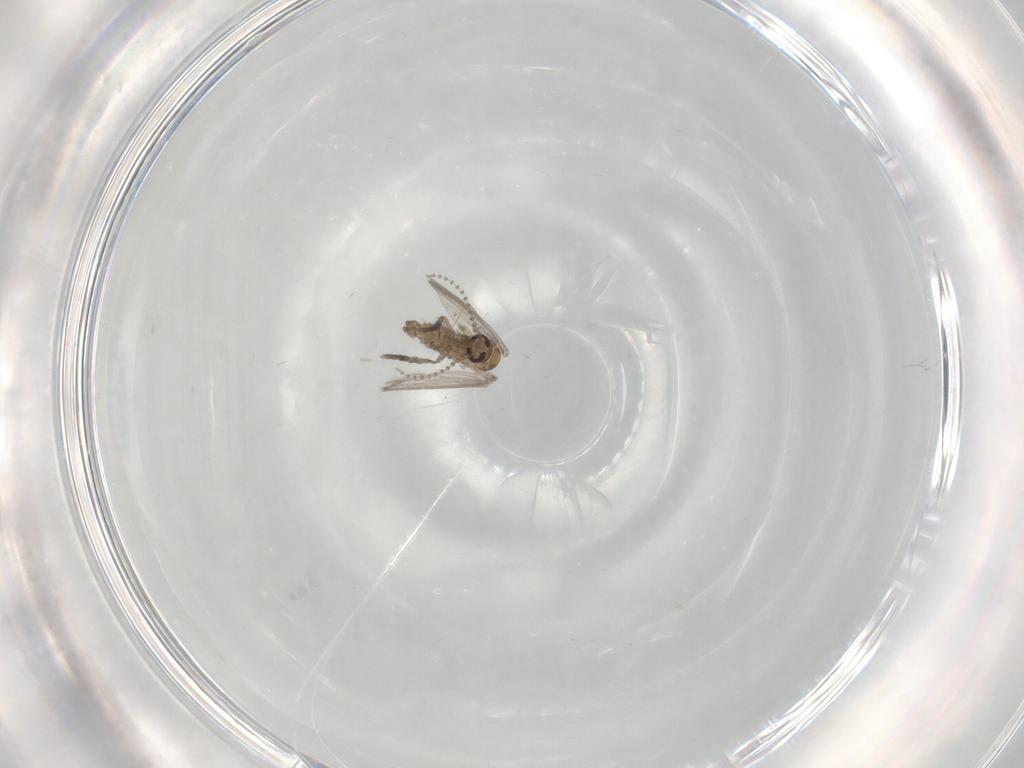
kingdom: Animalia
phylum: Arthropoda
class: Insecta
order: Diptera
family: Psychodidae
